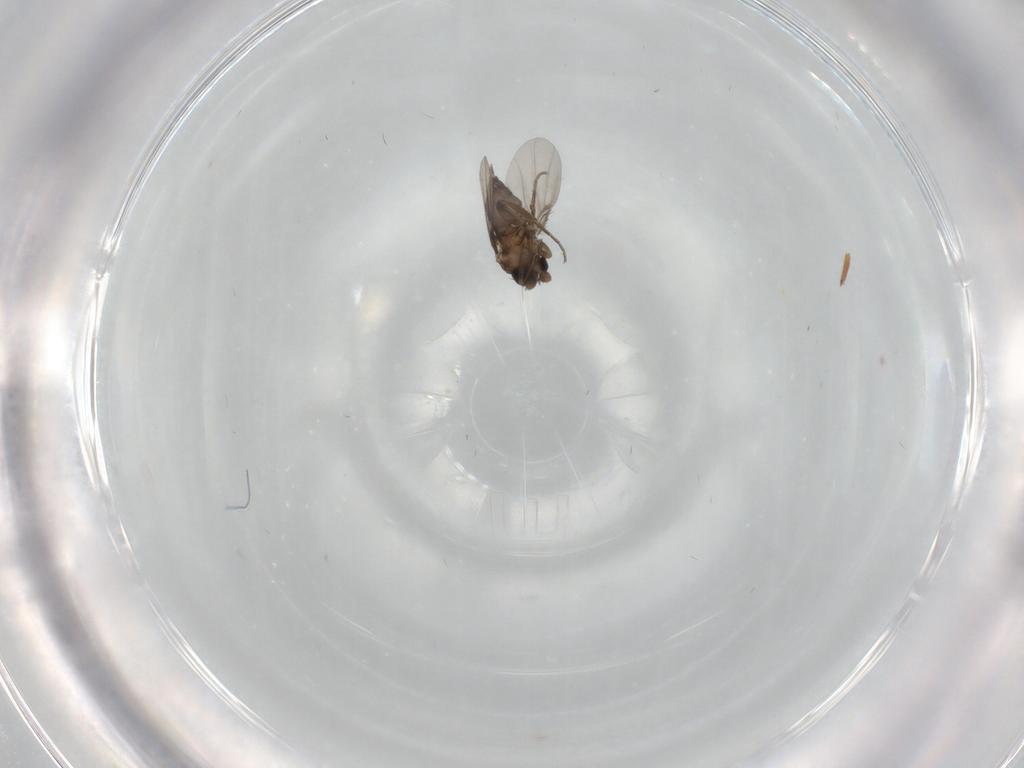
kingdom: Animalia
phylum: Arthropoda
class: Insecta
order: Diptera
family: Phoridae
